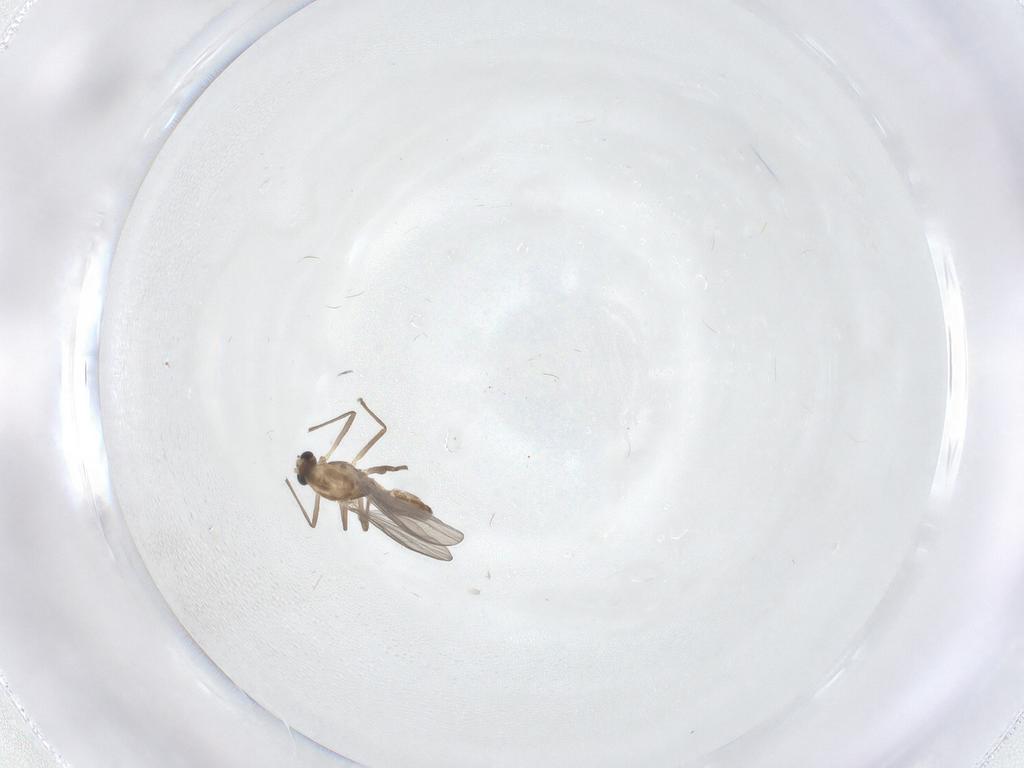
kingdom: Animalia
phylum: Arthropoda
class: Insecta
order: Diptera
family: Chironomidae
